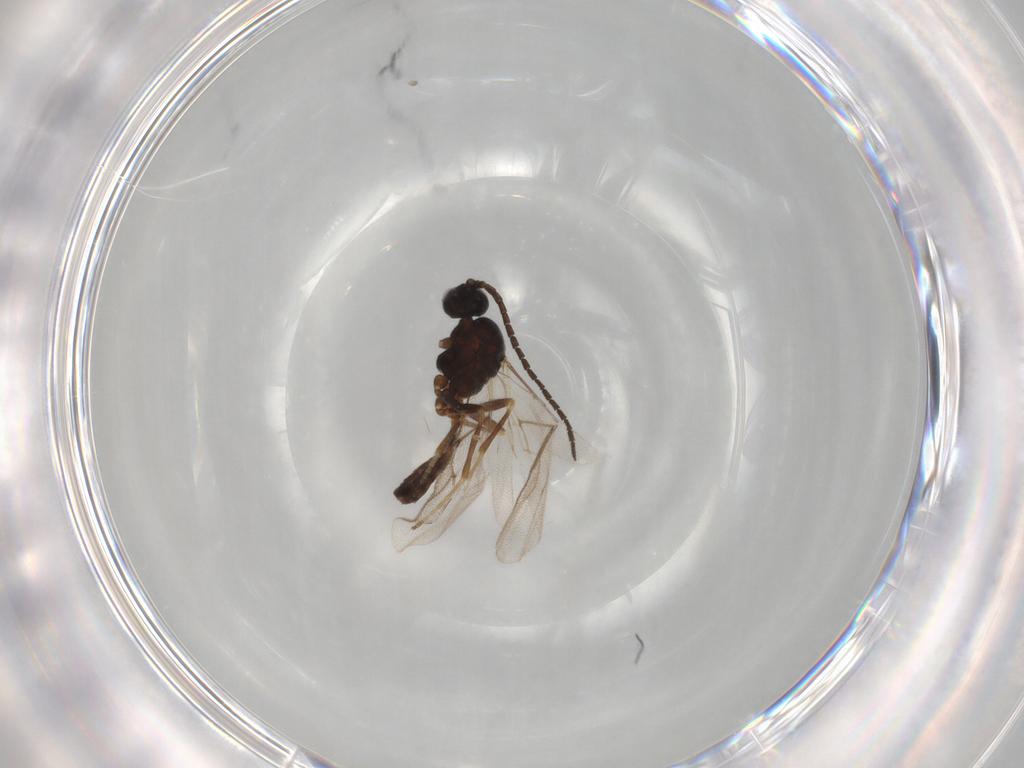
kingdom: Animalia
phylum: Arthropoda
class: Insecta
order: Hymenoptera
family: Braconidae
